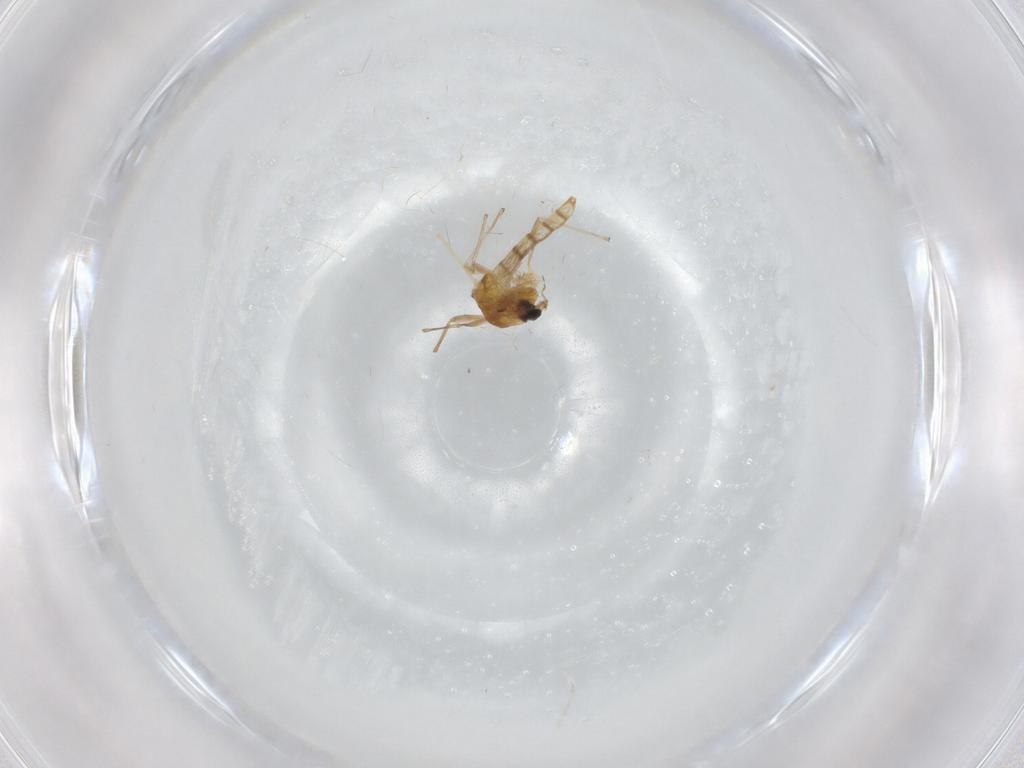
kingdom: Animalia
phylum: Arthropoda
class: Insecta
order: Diptera
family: Chironomidae
